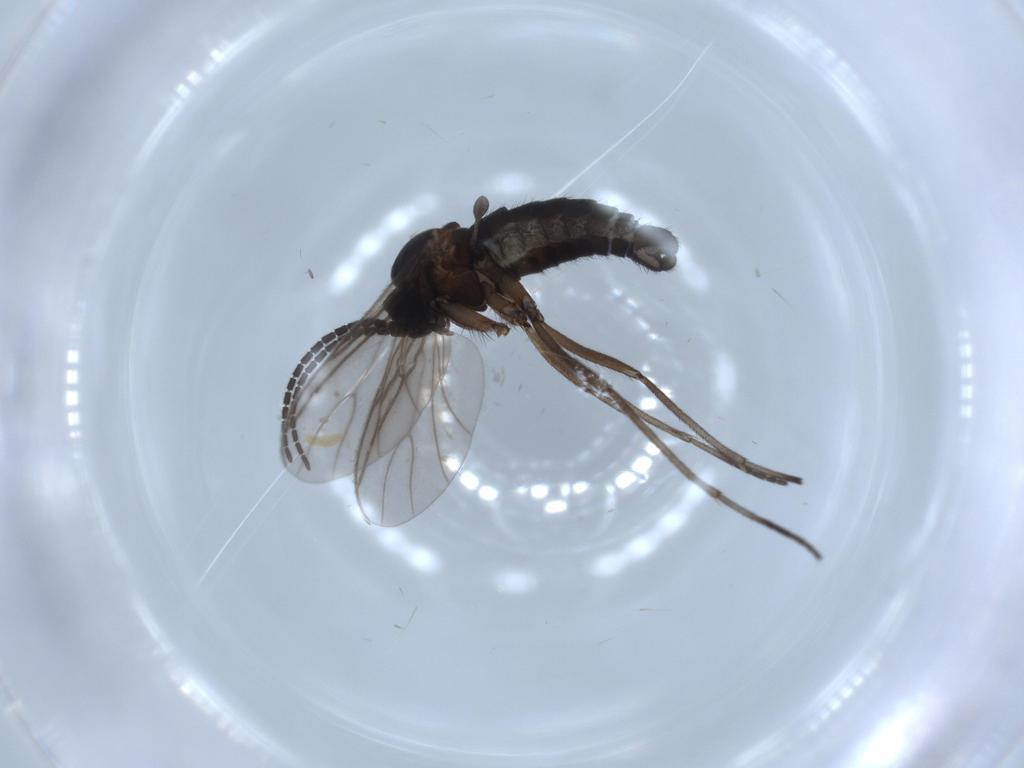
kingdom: Animalia
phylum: Arthropoda
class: Insecta
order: Diptera
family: Sciaridae
